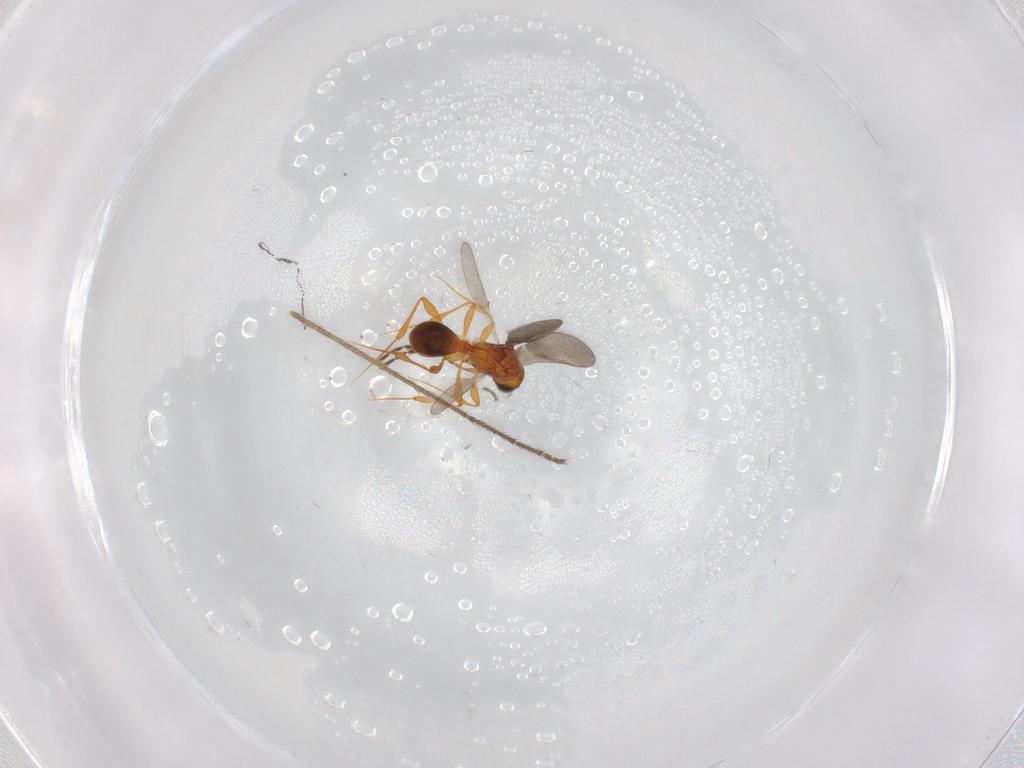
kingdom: Animalia
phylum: Arthropoda
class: Insecta
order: Hymenoptera
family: Platygastridae
